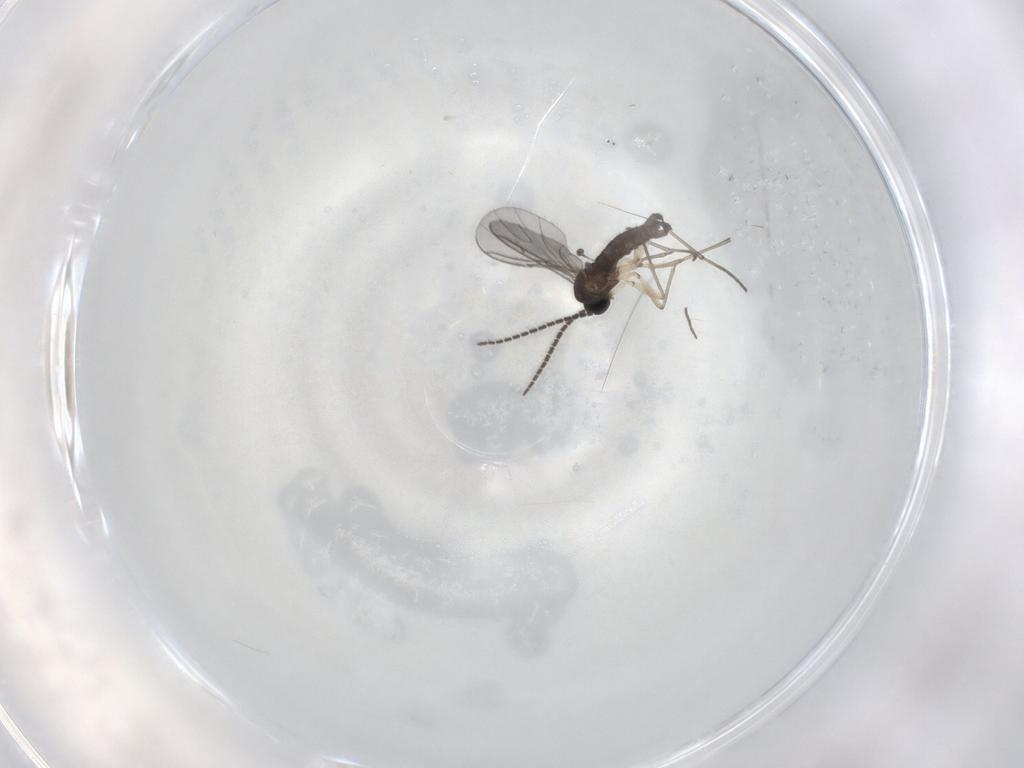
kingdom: Animalia
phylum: Arthropoda
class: Insecta
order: Diptera
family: Sciaridae
